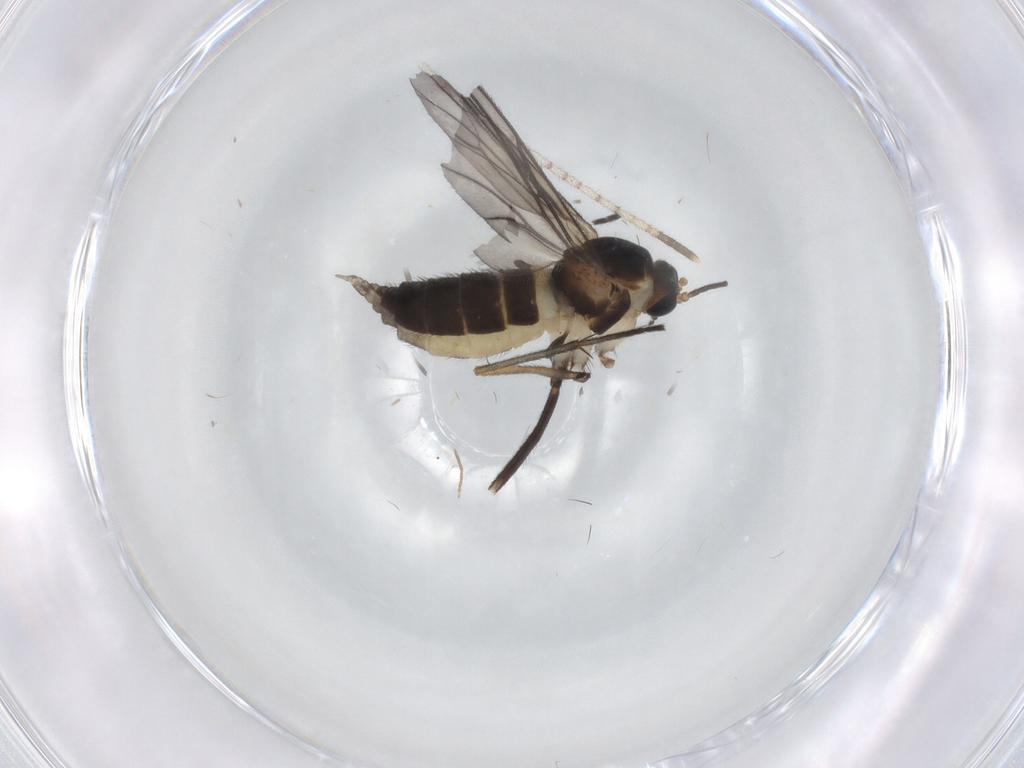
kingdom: Animalia
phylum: Arthropoda
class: Insecta
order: Diptera
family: Sciaridae
